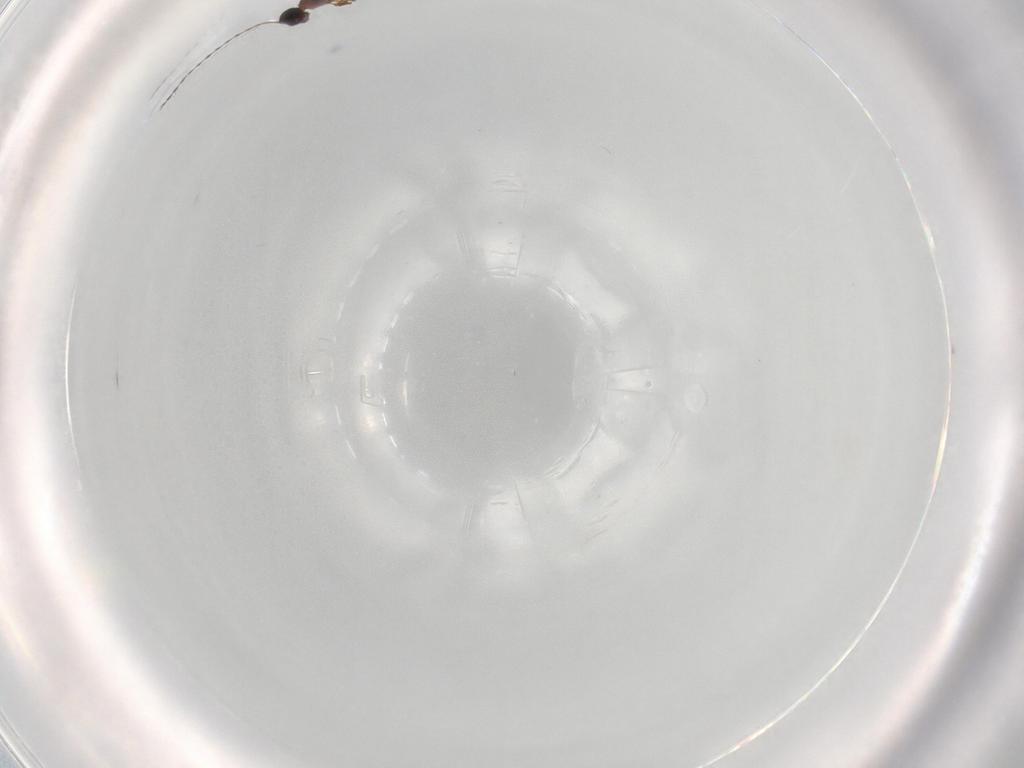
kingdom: Animalia
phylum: Arthropoda
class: Insecta
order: Hymenoptera
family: Diapriidae
